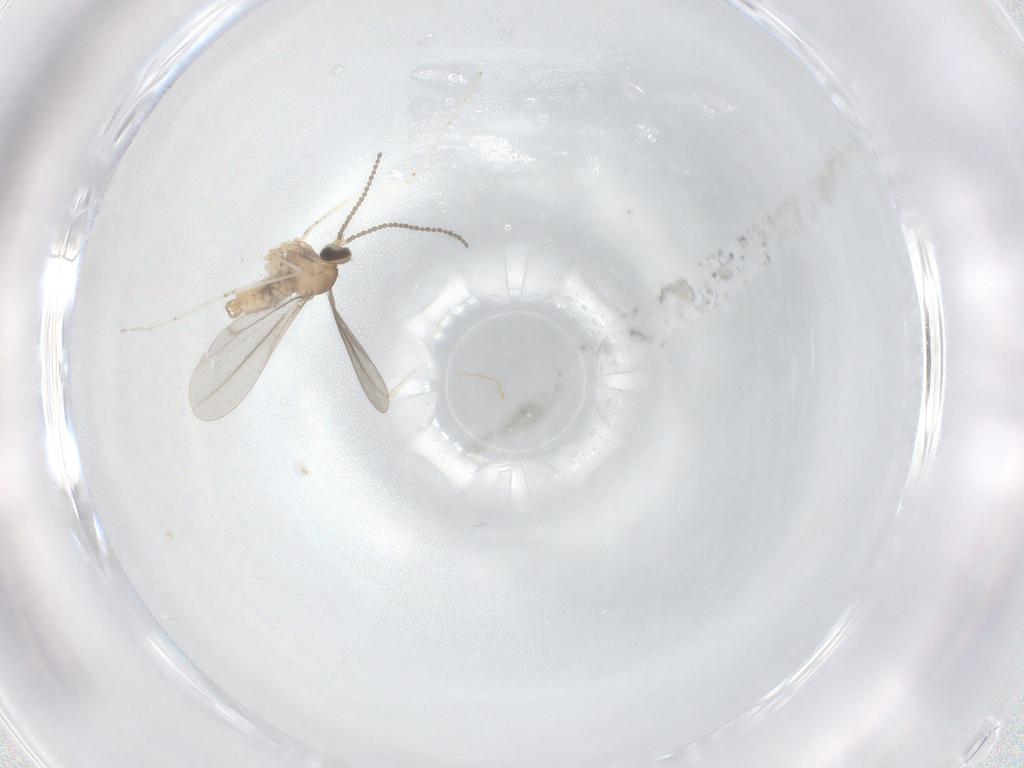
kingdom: Animalia
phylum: Arthropoda
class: Insecta
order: Diptera
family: Cecidomyiidae
